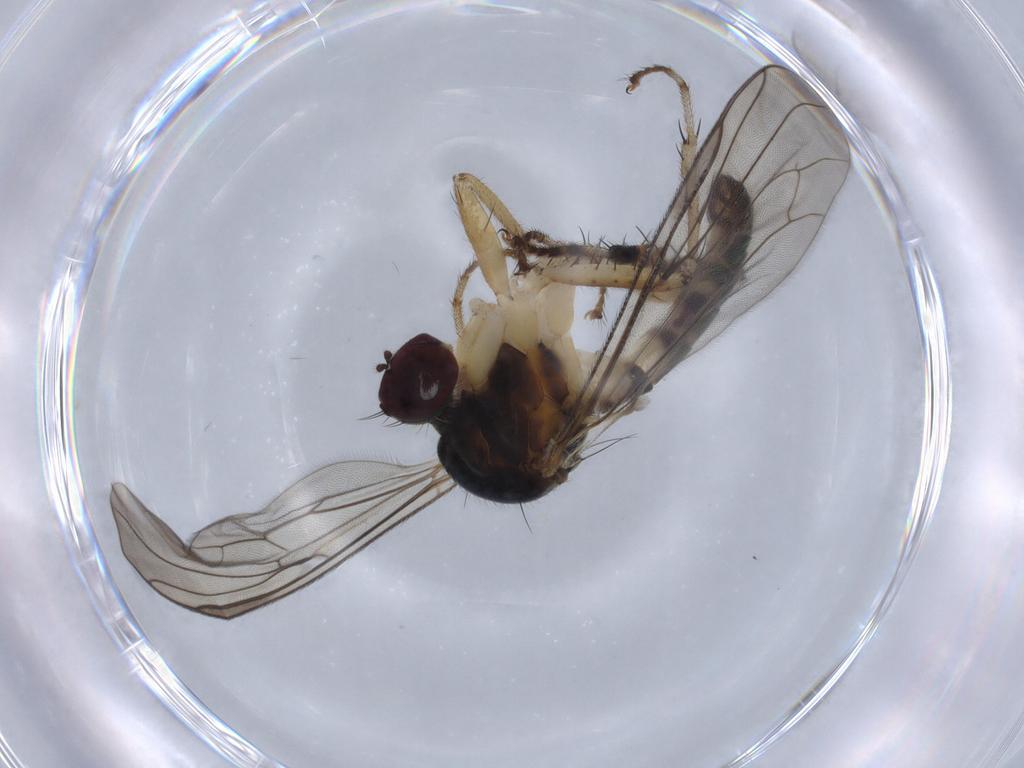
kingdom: Animalia
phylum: Arthropoda
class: Insecta
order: Diptera
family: Hybotidae
